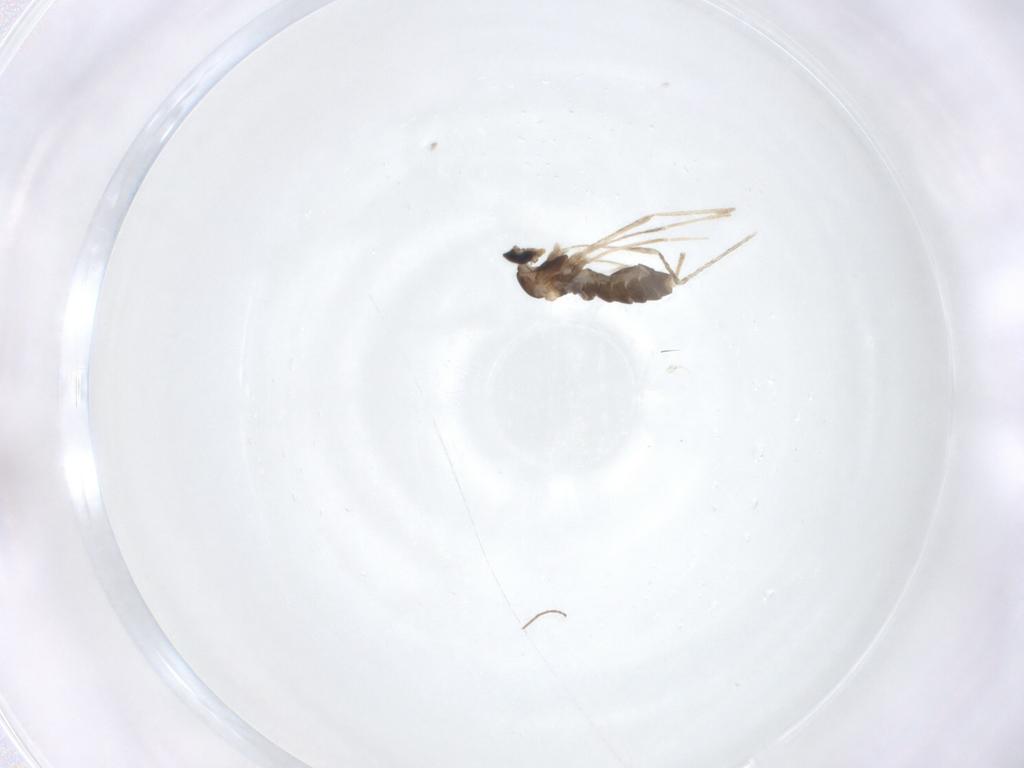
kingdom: Animalia
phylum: Arthropoda
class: Insecta
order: Diptera
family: Cecidomyiidae
